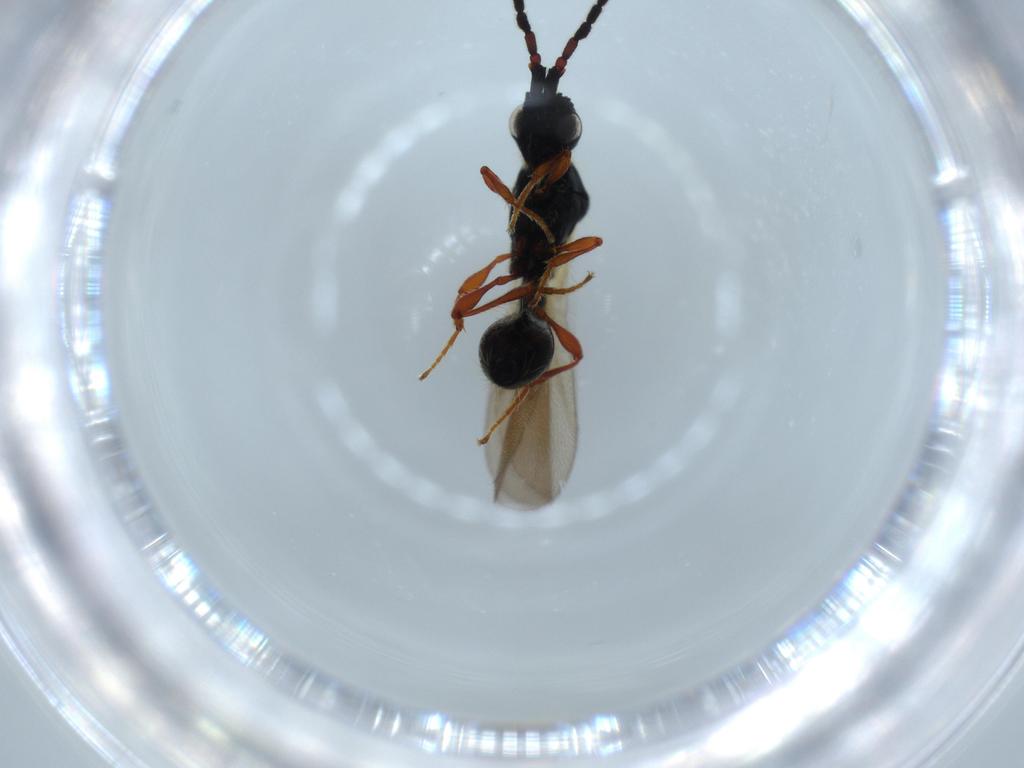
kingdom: Animalia
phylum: Arthropoda
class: Insecta
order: Hymenoptera
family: Diapriidae
